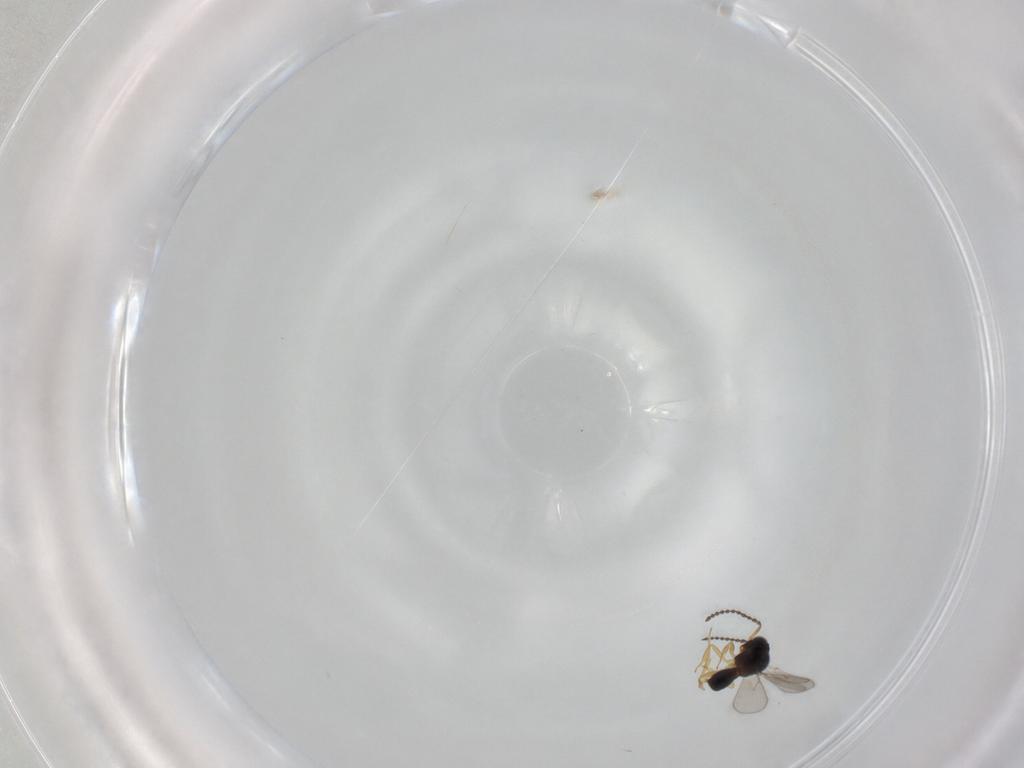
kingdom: Animalia
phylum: Arthropoda
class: Insecta
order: Hymenoptera
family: Scelionidae
